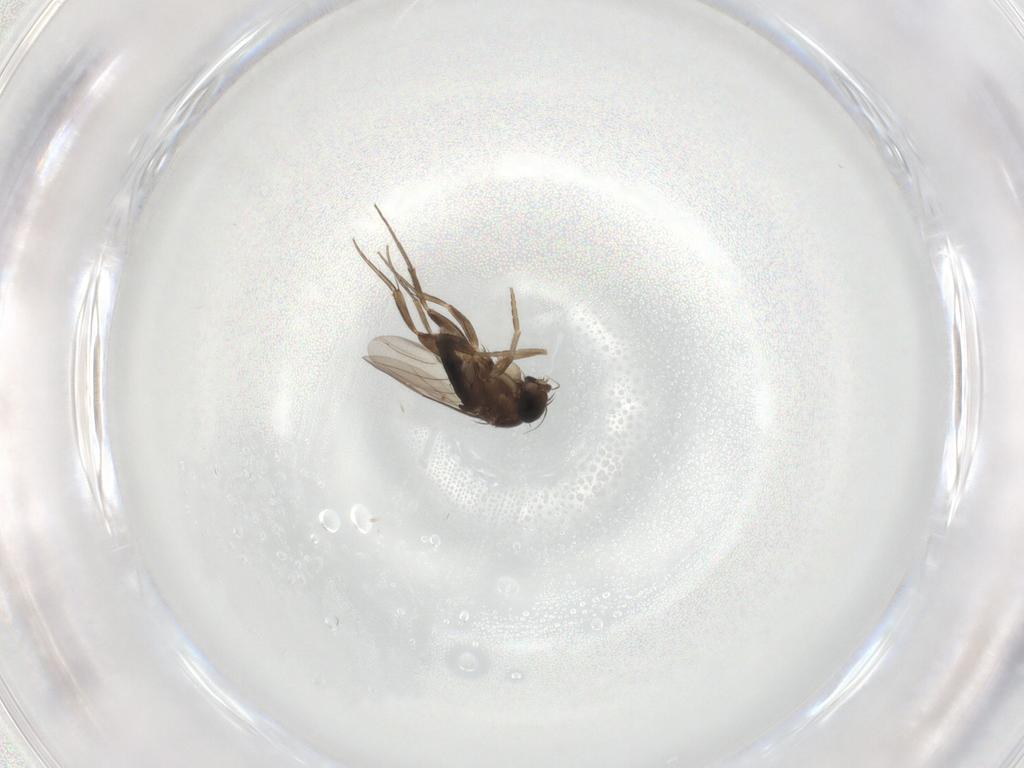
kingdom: Animalia
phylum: Arthropoda
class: Insecta
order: Diptera
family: Phoridae
